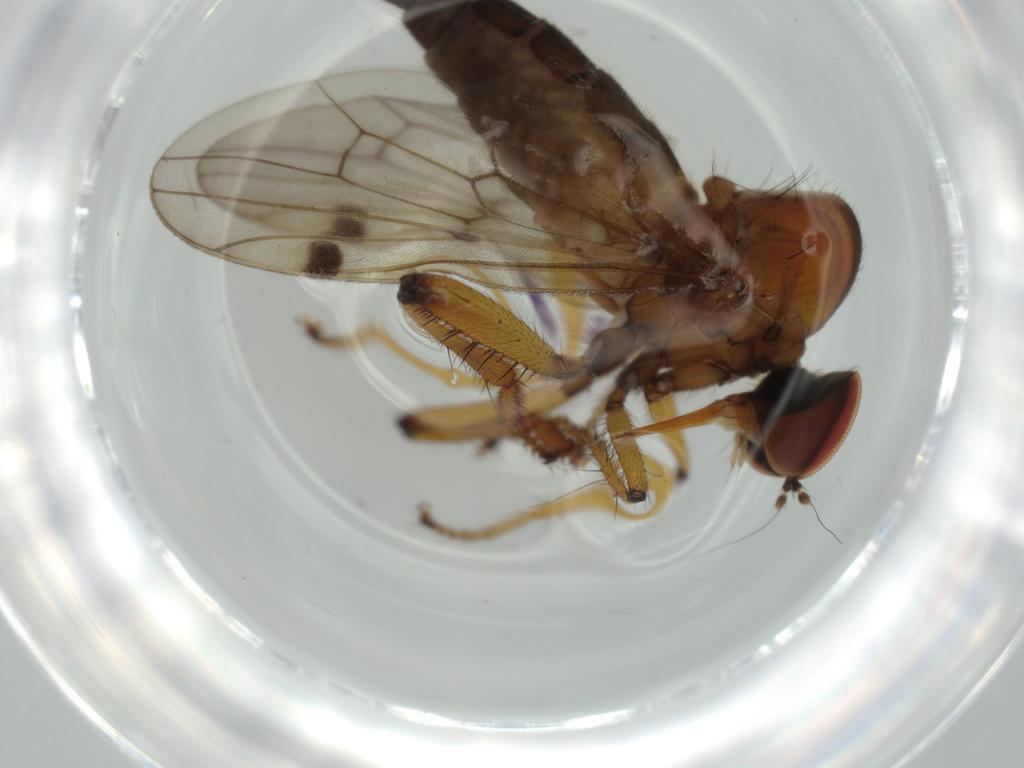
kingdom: Animalia
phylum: Arthropoda
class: Insecta
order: Diptera
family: Hybotidae
